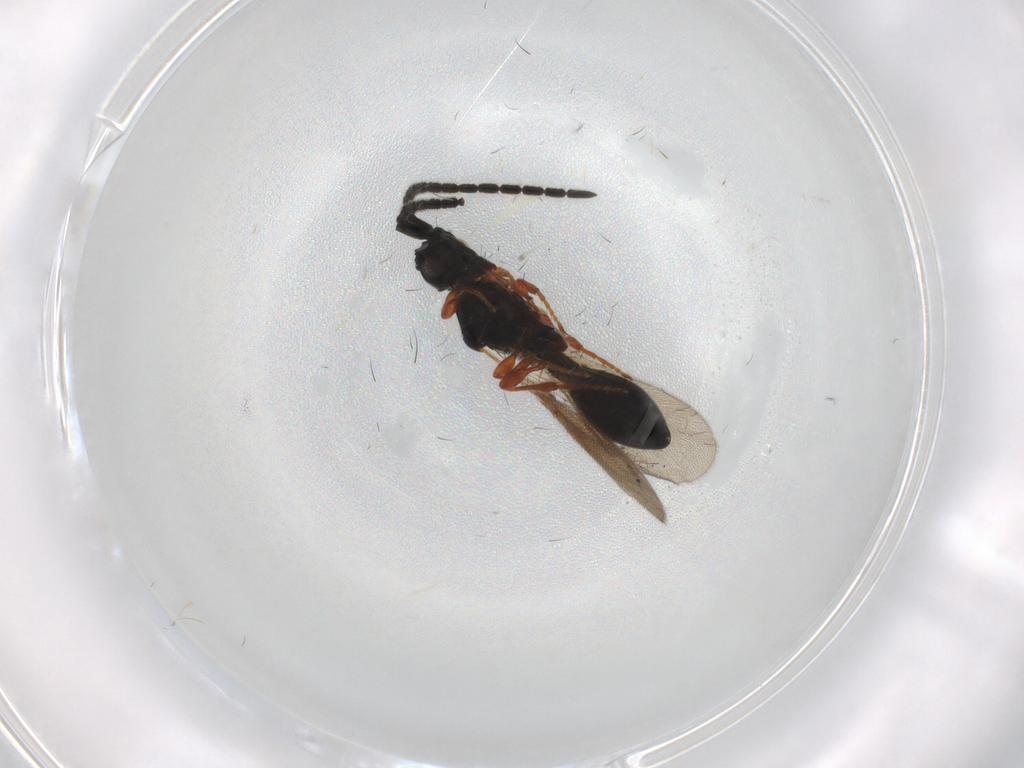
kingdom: Animalia
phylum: Arthropoda
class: Insecta
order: Hymenoptera
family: Diapriidae
